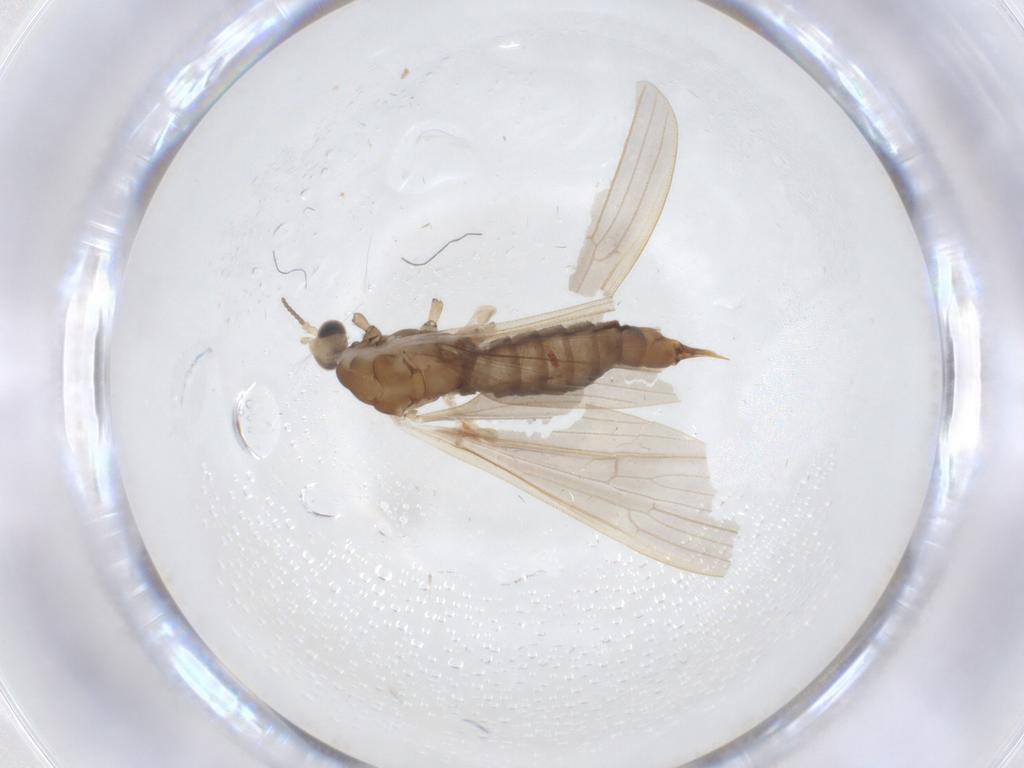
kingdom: Animalia
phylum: Arthropoda
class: Insecta
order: Diptera
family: Limoniidae
